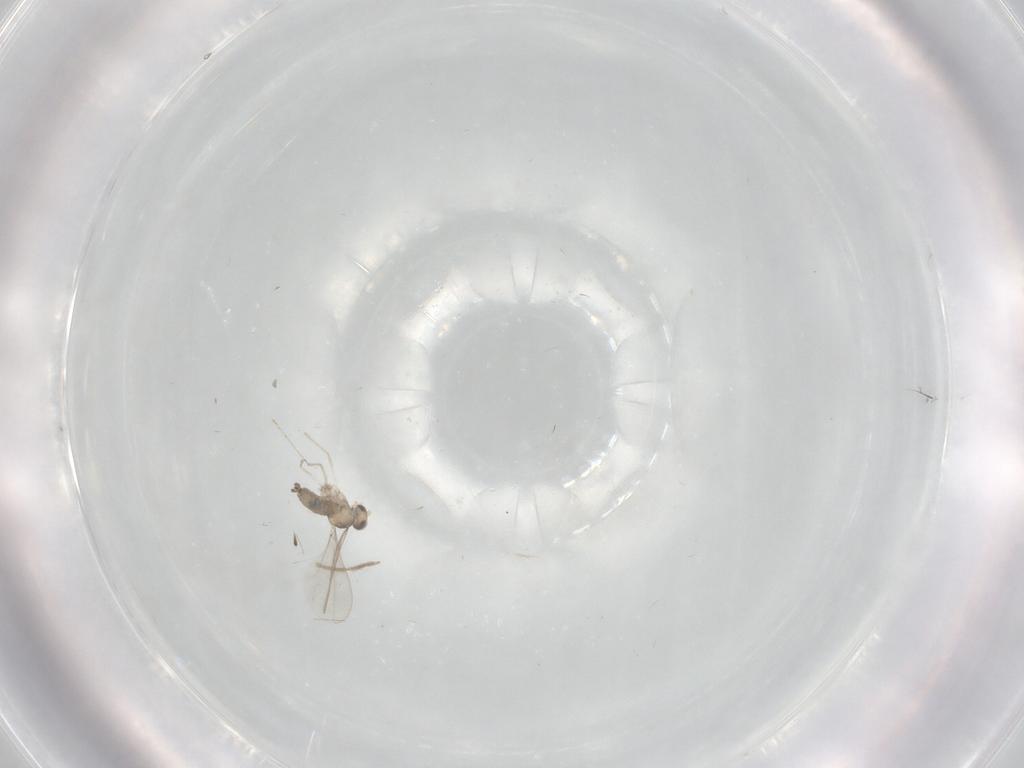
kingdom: Animalia
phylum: Arthropoda
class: Insecta
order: Diptera
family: Cecidomyiidae
